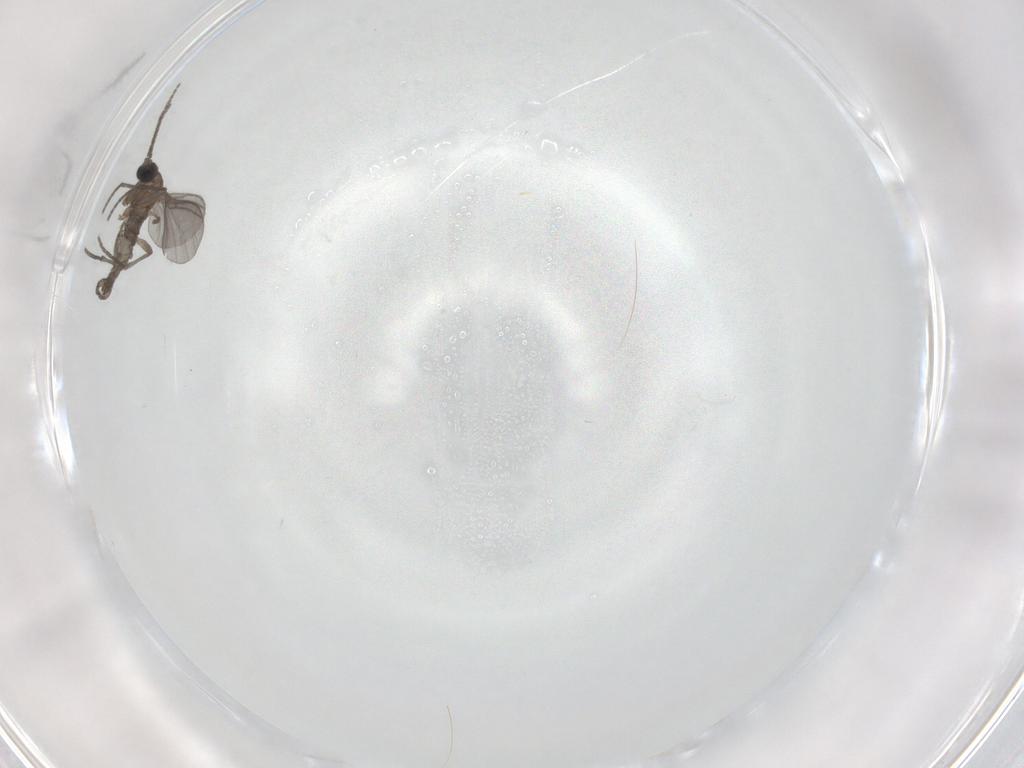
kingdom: Animalia
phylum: Arthropoda
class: Insecta
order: Diptera
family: Sciaridae
